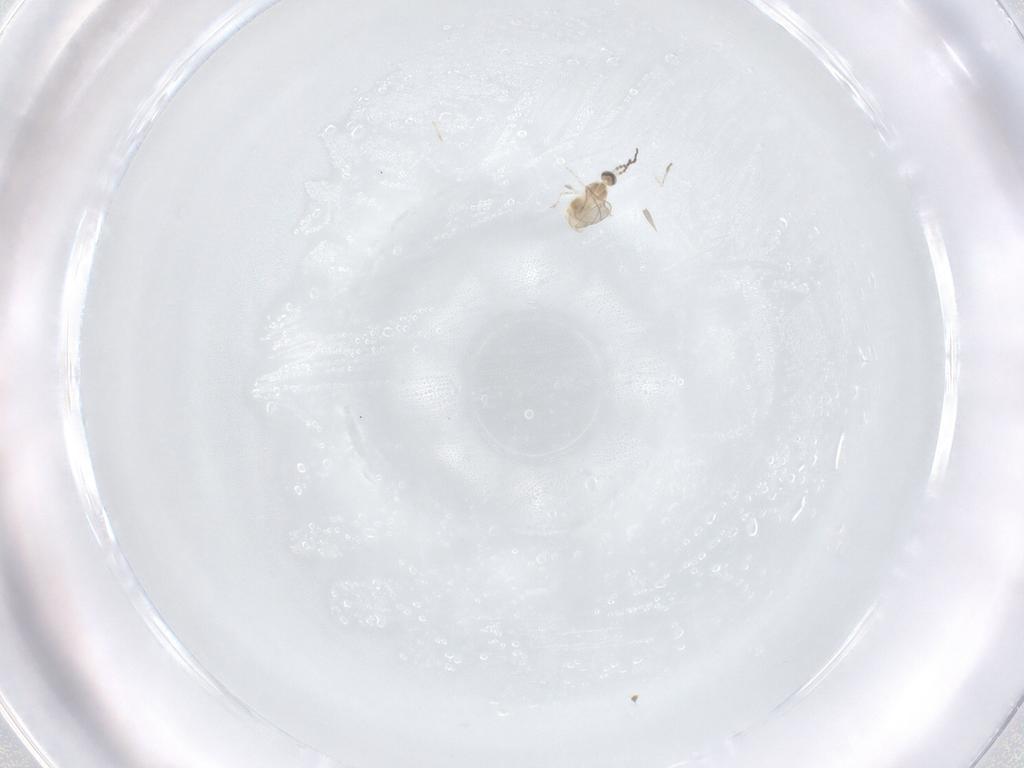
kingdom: Animalia
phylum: Arthropoda
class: Insecta
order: Diptera
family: Cecidomyiidae
